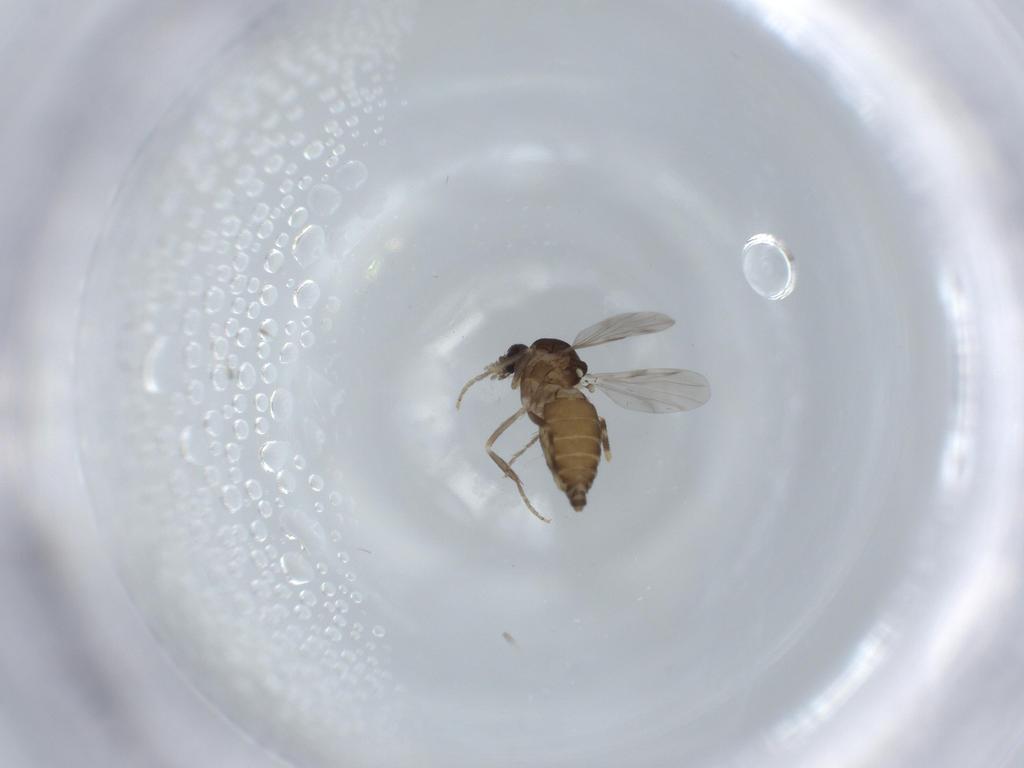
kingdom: Animalia
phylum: Arthropoda
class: Insecta
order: Diptera
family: Ceratopogonidae
